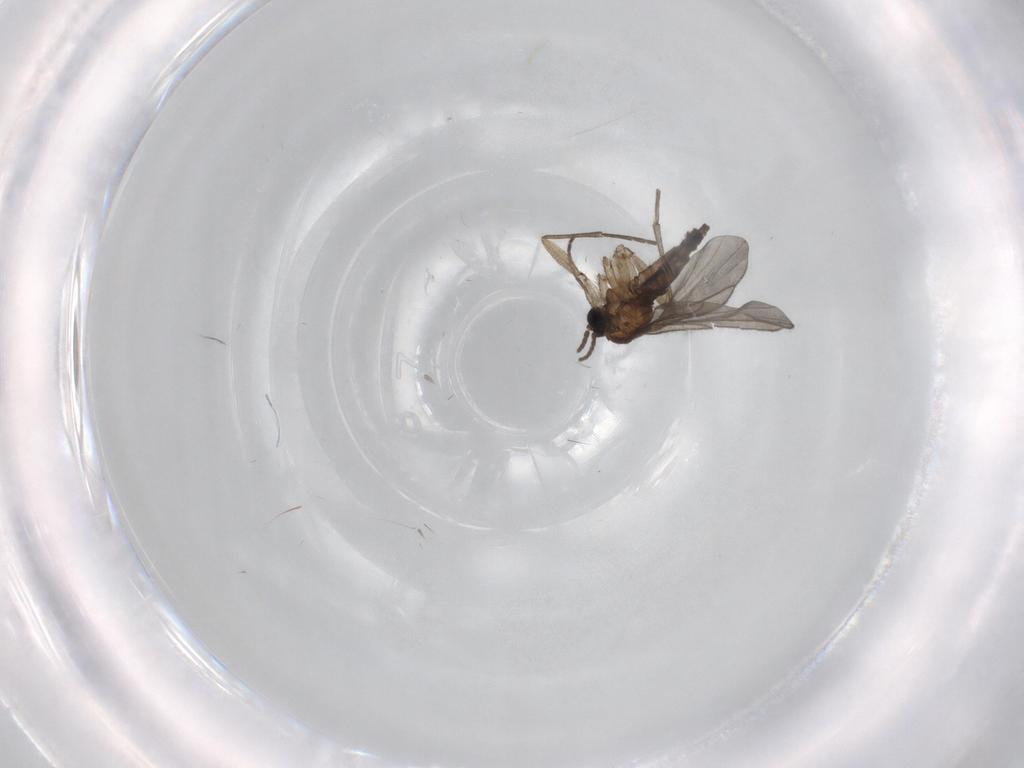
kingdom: Animalia
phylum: Arthropoda
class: Insecta
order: Diptera
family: Sciaridae
